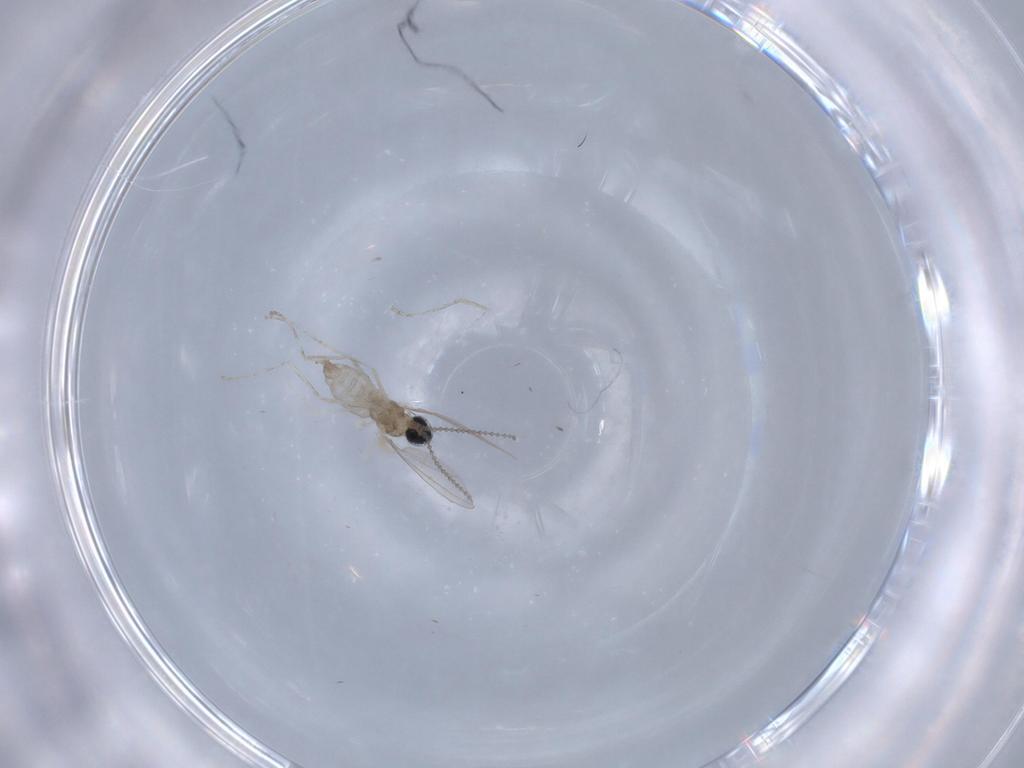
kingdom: Animalia
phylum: Arthropoda
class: Insecta
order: Diptera
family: Cecidomyiidae
